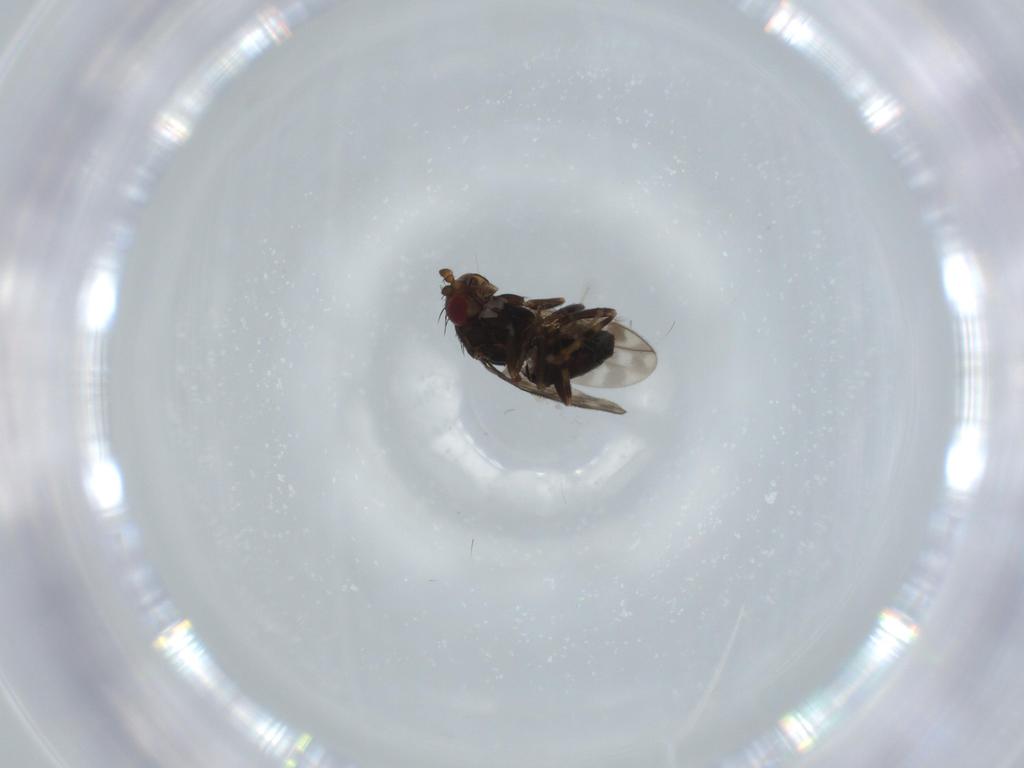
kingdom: Animalia
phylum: Arthropoda
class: Insecta
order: Diptera
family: Sphaeroceridae
